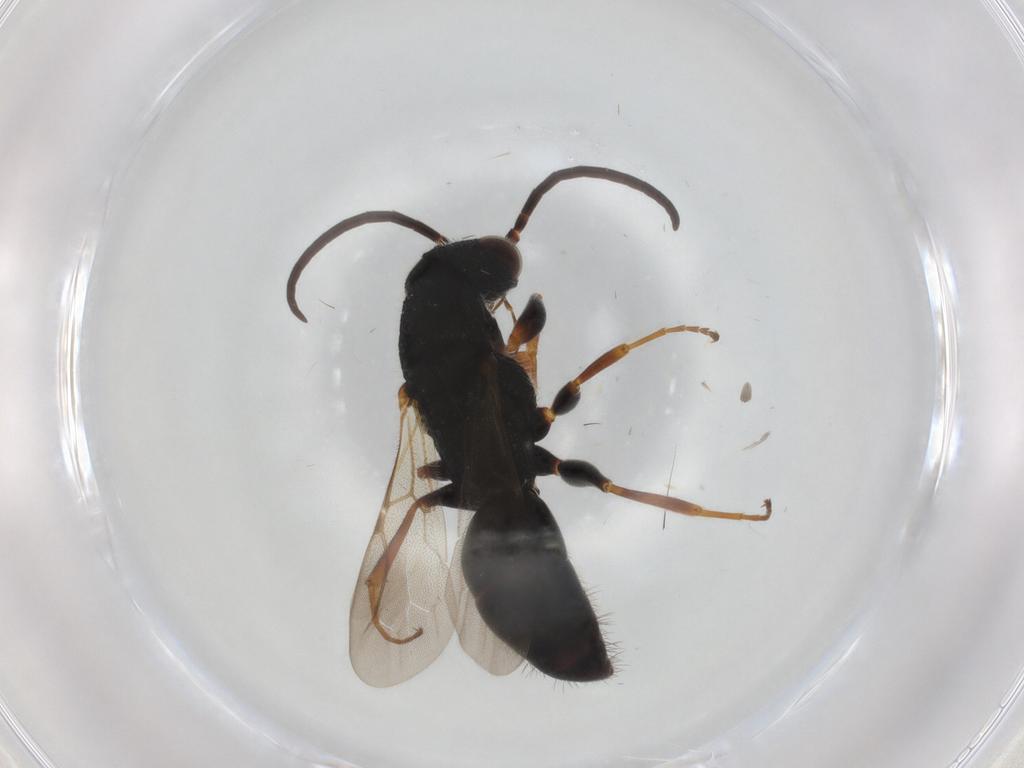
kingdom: Animalia
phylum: Arthropoda
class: Insecta
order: Hymenoptera
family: Bethylidae
